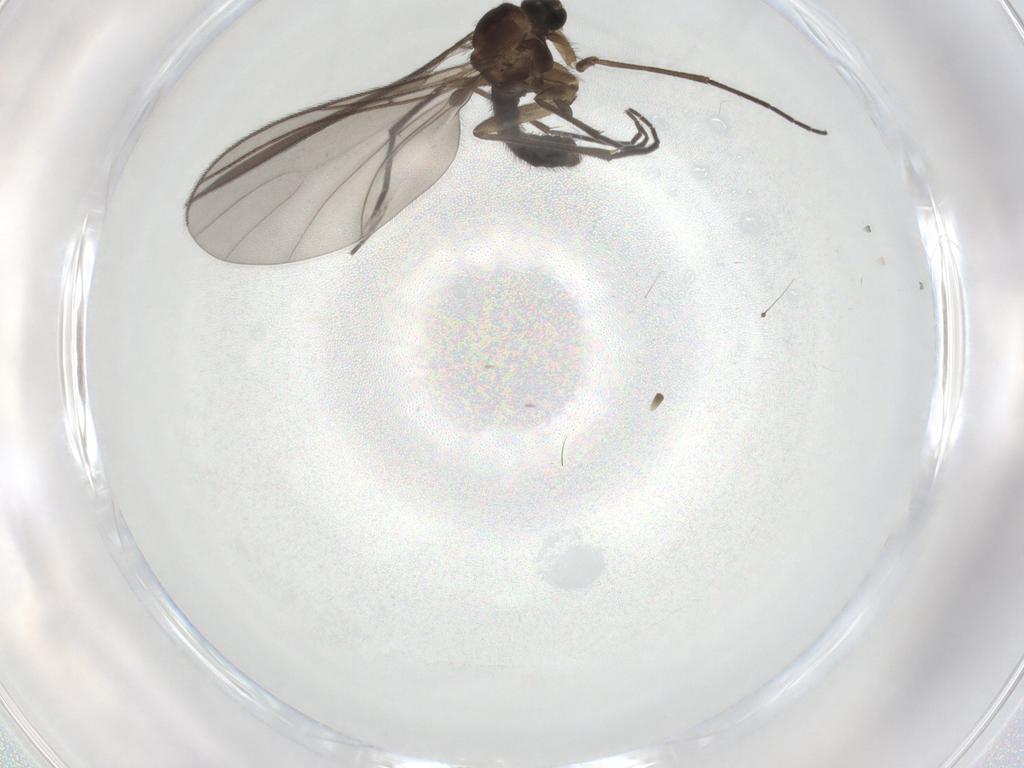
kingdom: Animalia
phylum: Arthropoda
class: Insecta
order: Diptera
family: Sciaridae
